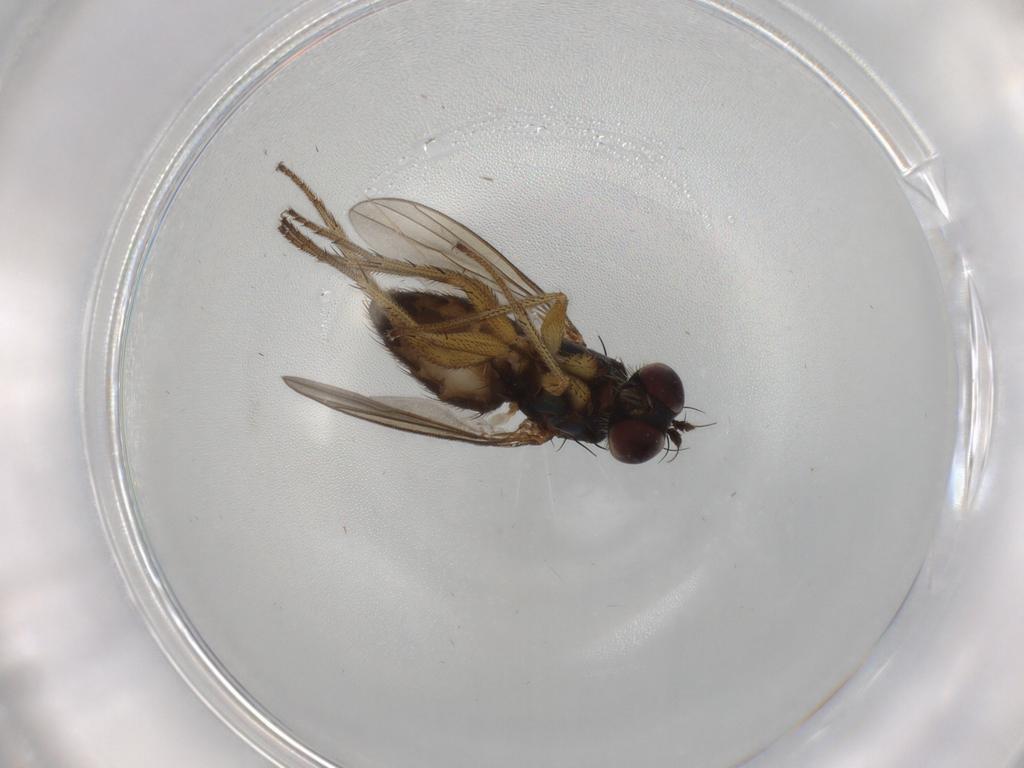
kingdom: Animalia
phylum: Arthropoda
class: Insecta
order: Diptera
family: Dolichopodidae
